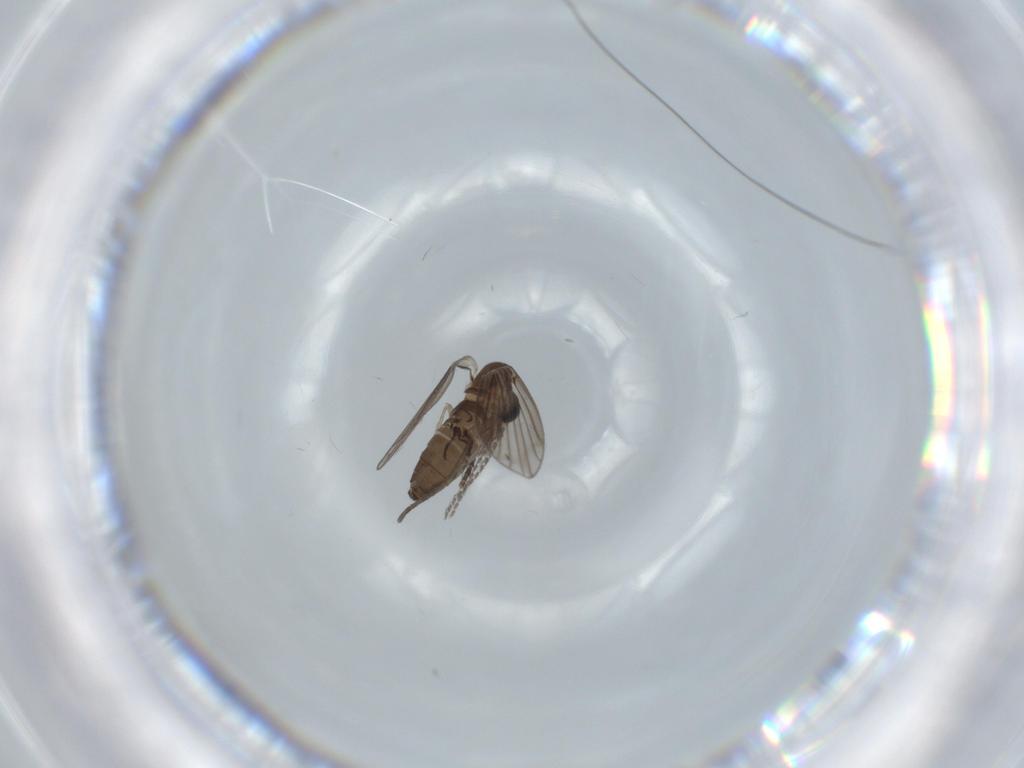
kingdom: Animalia
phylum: Arthropoda
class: Insecta
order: Diptera
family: Psychodidae
